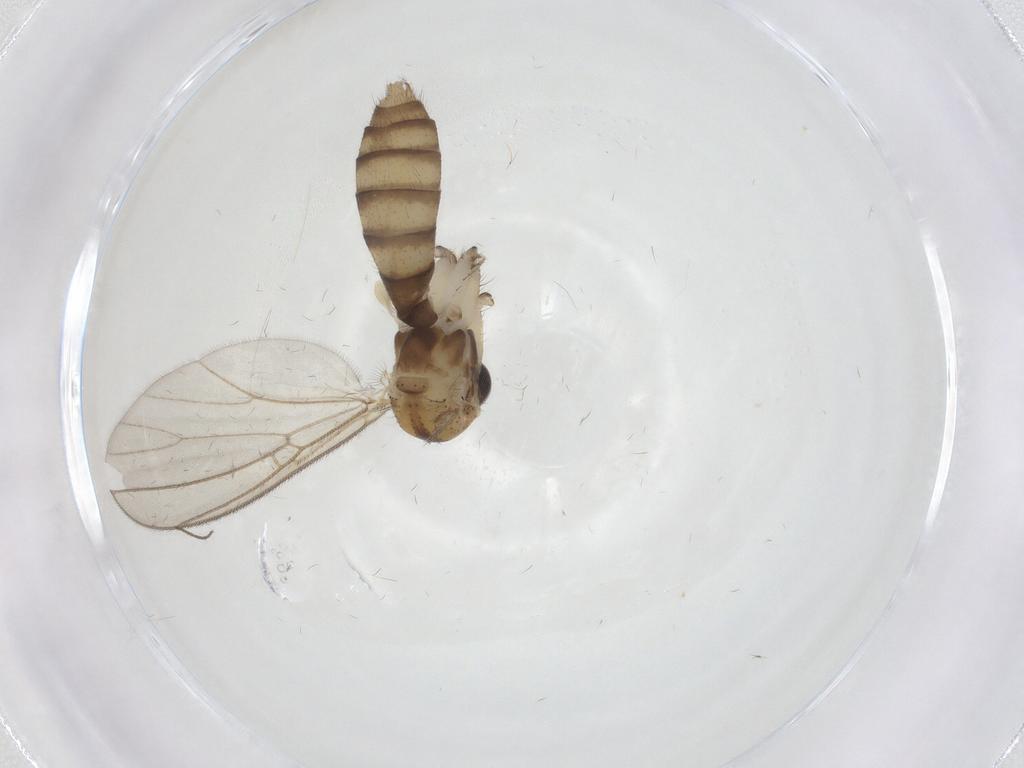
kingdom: Animalia
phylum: Arthropoda
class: Insecta
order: Diptera
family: Mycetophilidae
